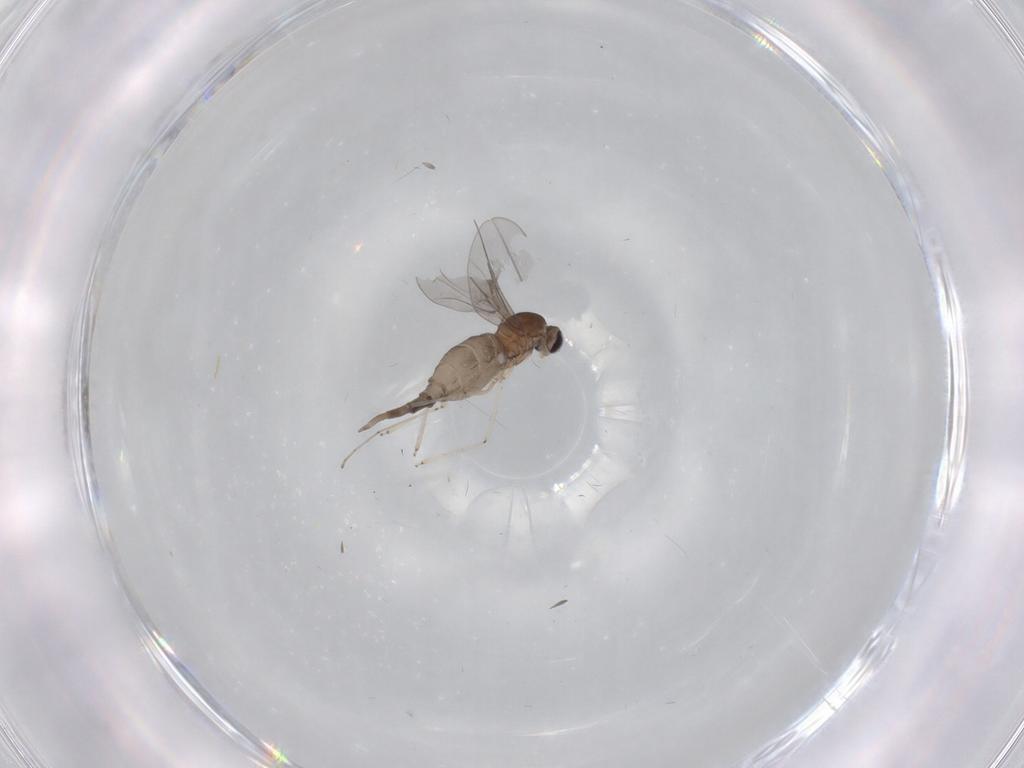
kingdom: Animalia
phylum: Arthropoda
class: Insecta
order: Diptera
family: Cecidomyiidae
